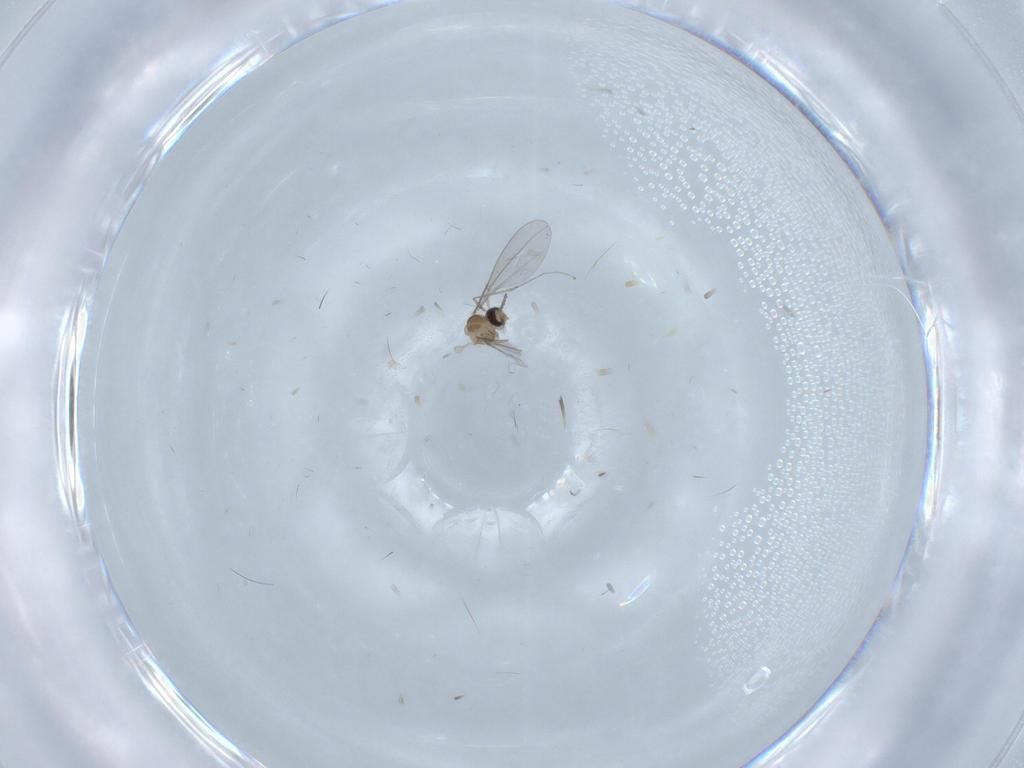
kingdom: Animalia
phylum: Arthropoda
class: Insecta
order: Diptera
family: Cecidomyiidae
